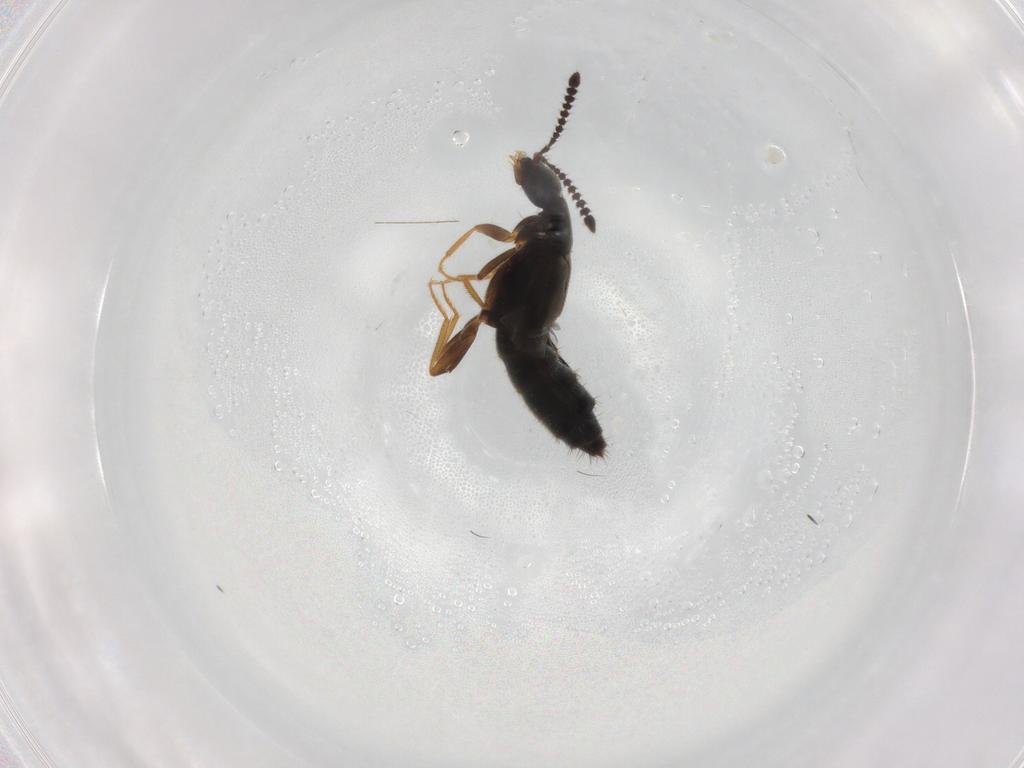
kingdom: Animalia
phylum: Arthropoda
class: Insecta
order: Coleoptera
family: Staphylinidae
